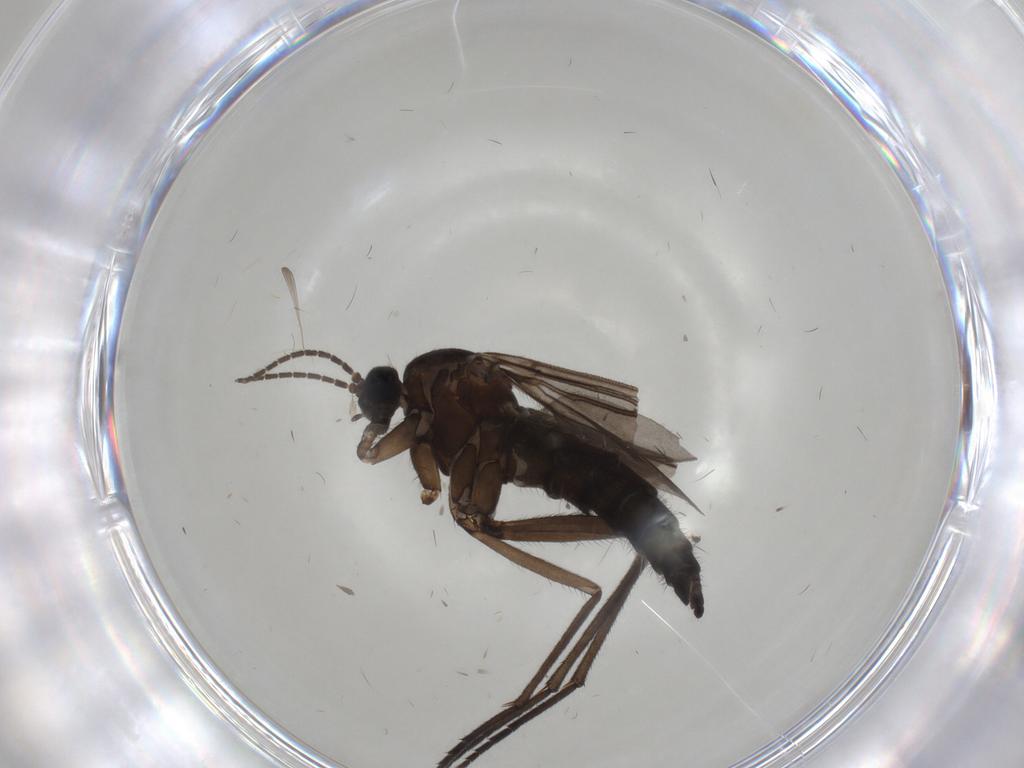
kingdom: Animalia
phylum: Arthropoda
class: Insecta
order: Diptera
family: Sciaridae
